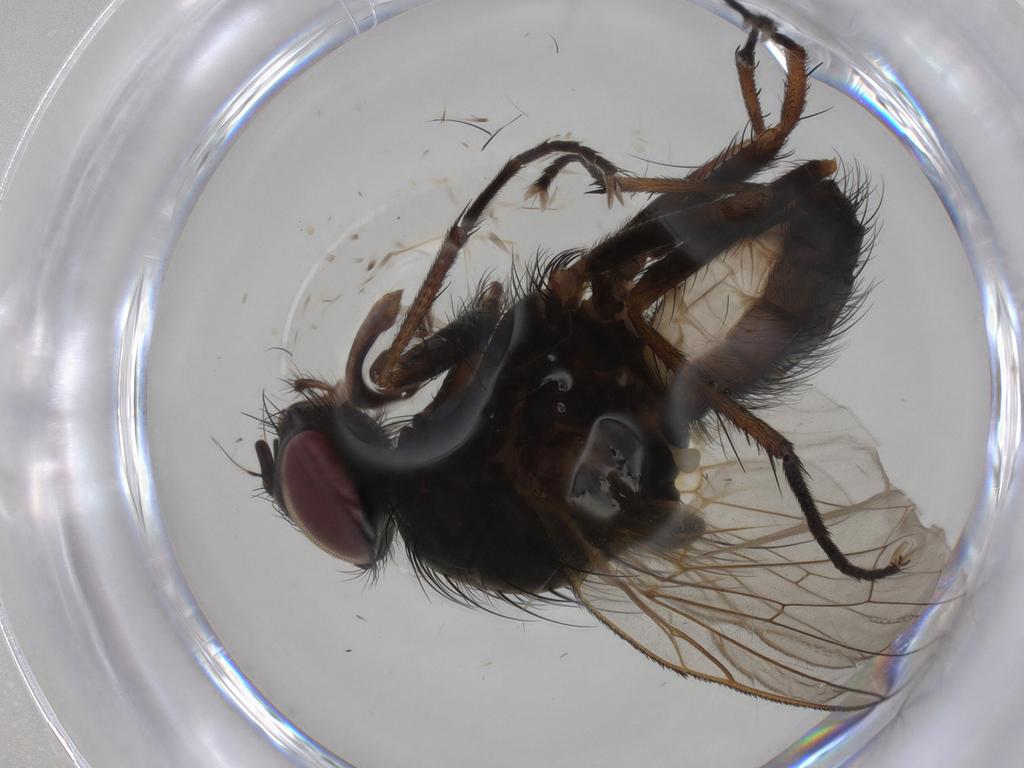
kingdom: Animalia
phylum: Arthropoda
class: Insecta
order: Diptera
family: Anthomyiidae
